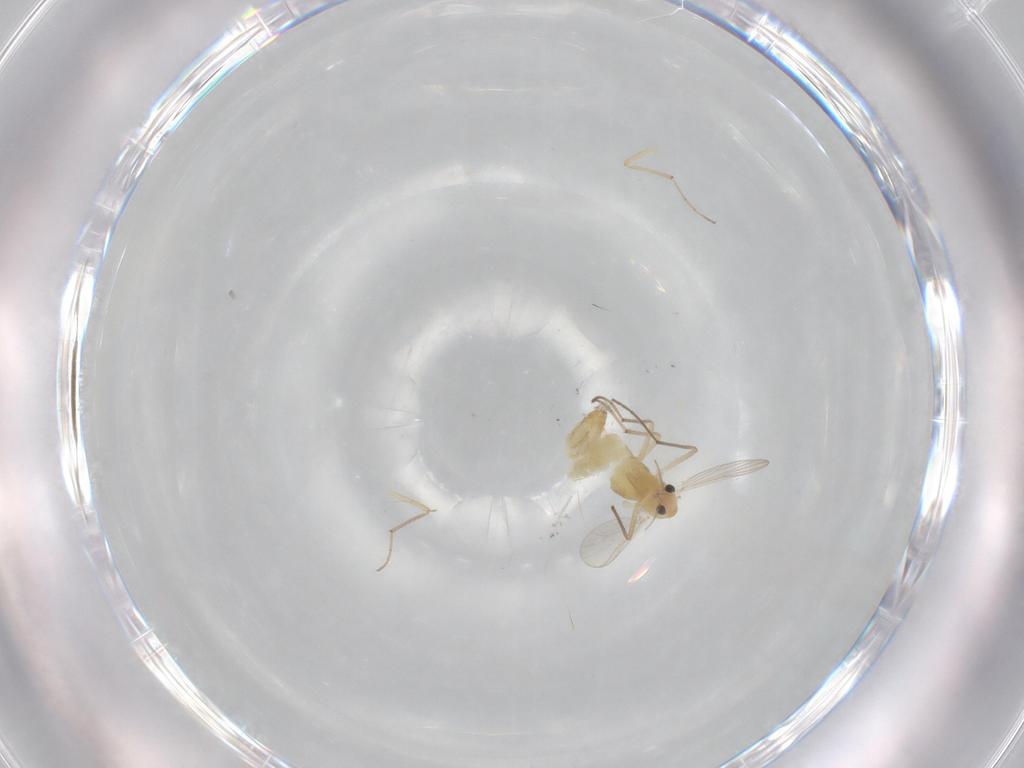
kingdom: Animalia
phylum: Arthropoda
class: Insecta
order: Diptera
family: Chironomidae
